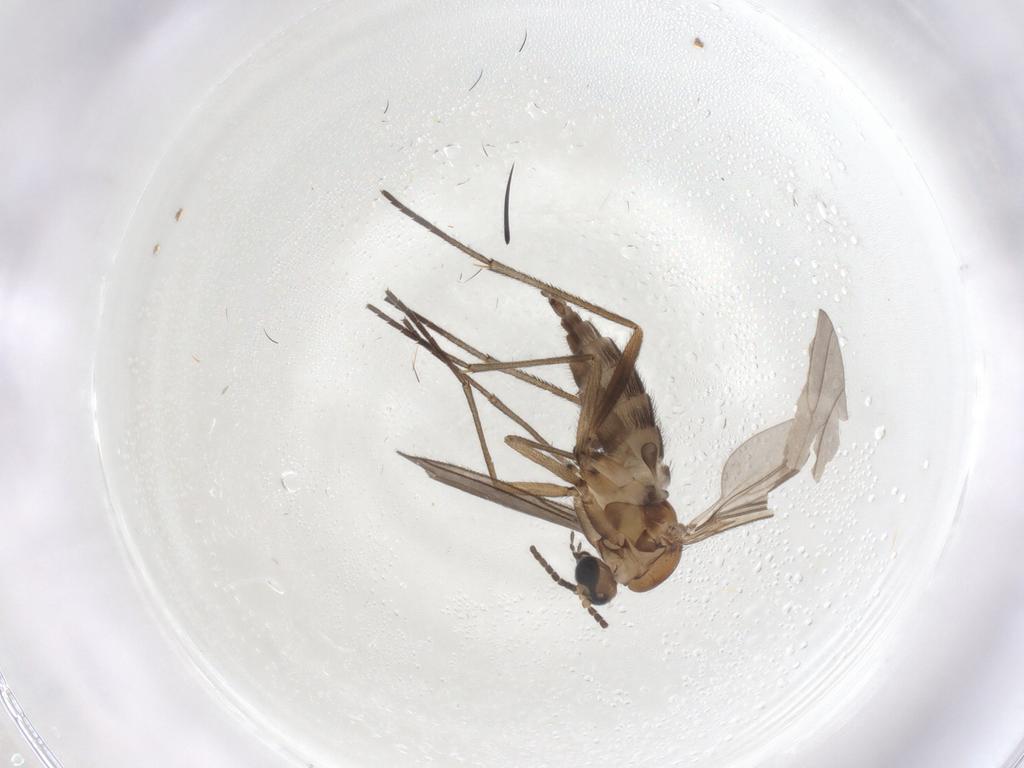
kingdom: Animalia
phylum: Arthropoda
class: Insecta
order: Diptera
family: Sciaridae
